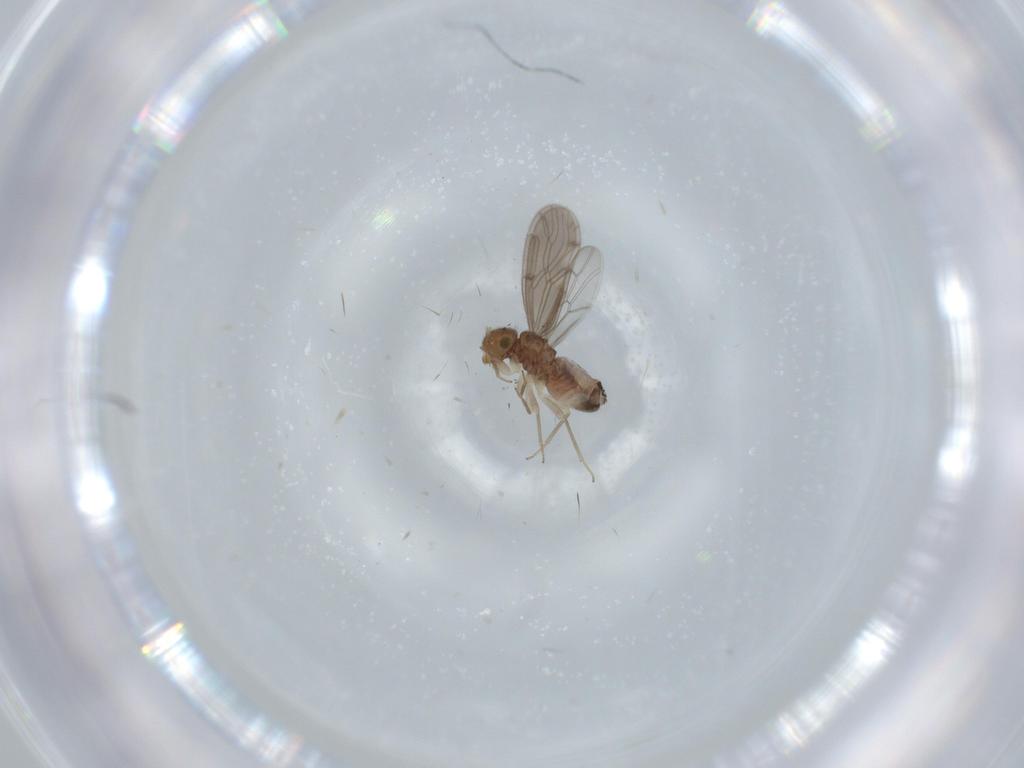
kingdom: Animalia
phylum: Arthropoda
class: Insecta
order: Psocodea
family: Ectopsocidae
